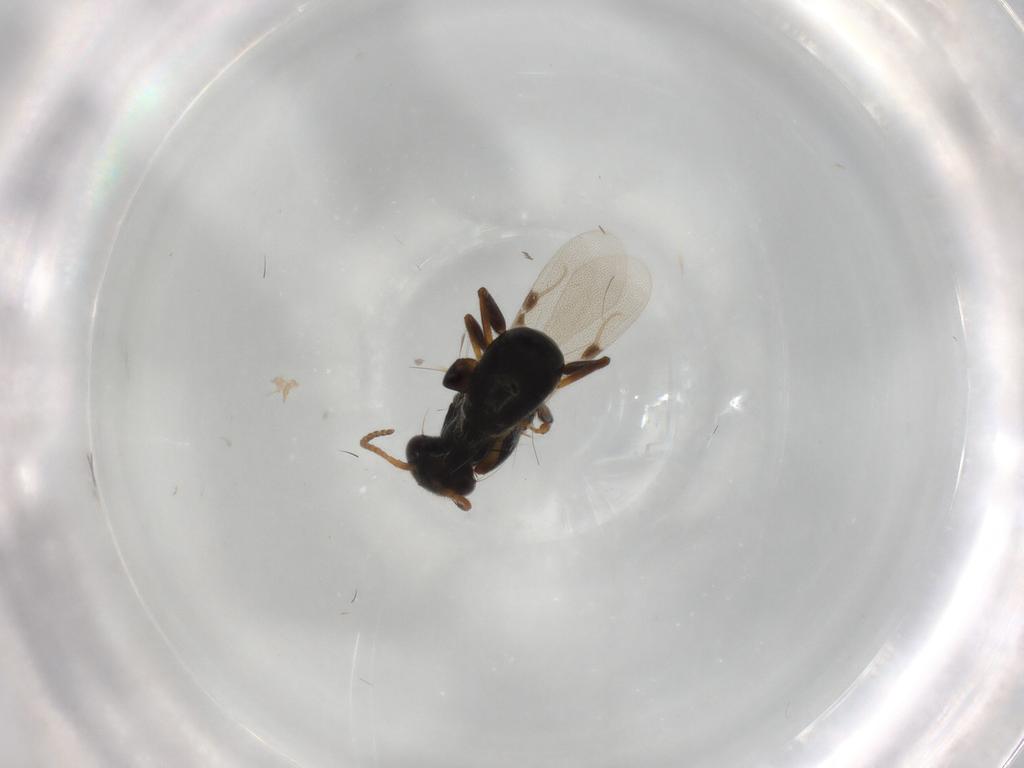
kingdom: Animalia
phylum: Arthropoda
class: Insecta
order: Hymenoptera
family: Bethylidae
